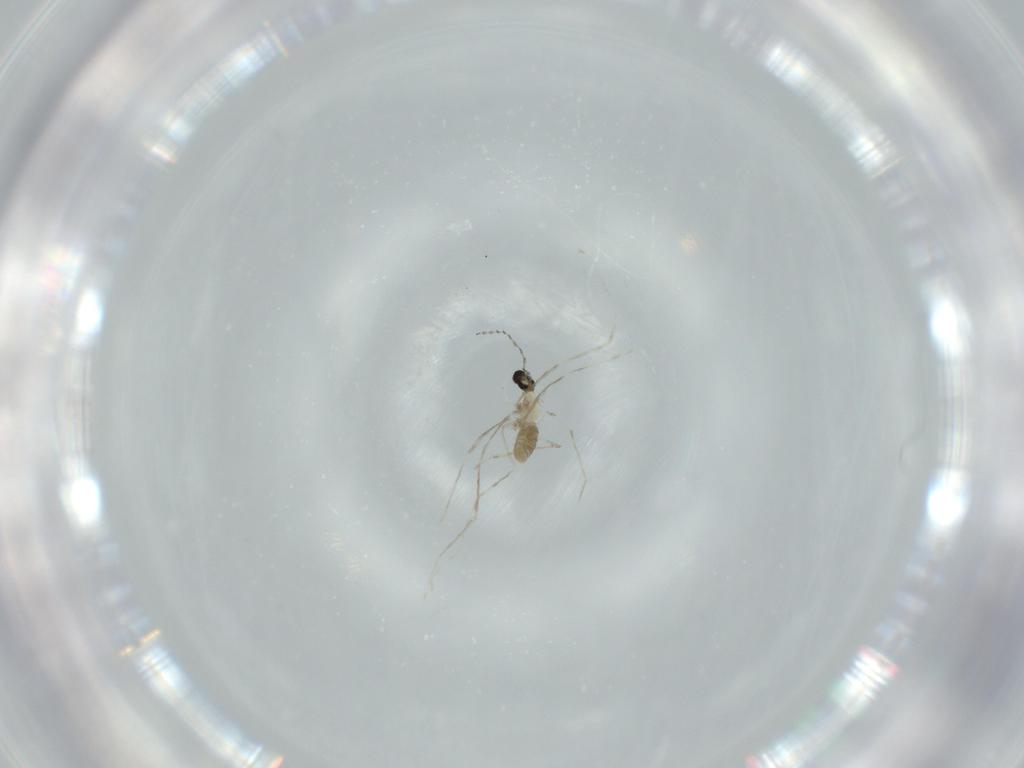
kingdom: Animalia
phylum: Arthropoda
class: Insecta
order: Diptera
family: Cecidomyiidae
